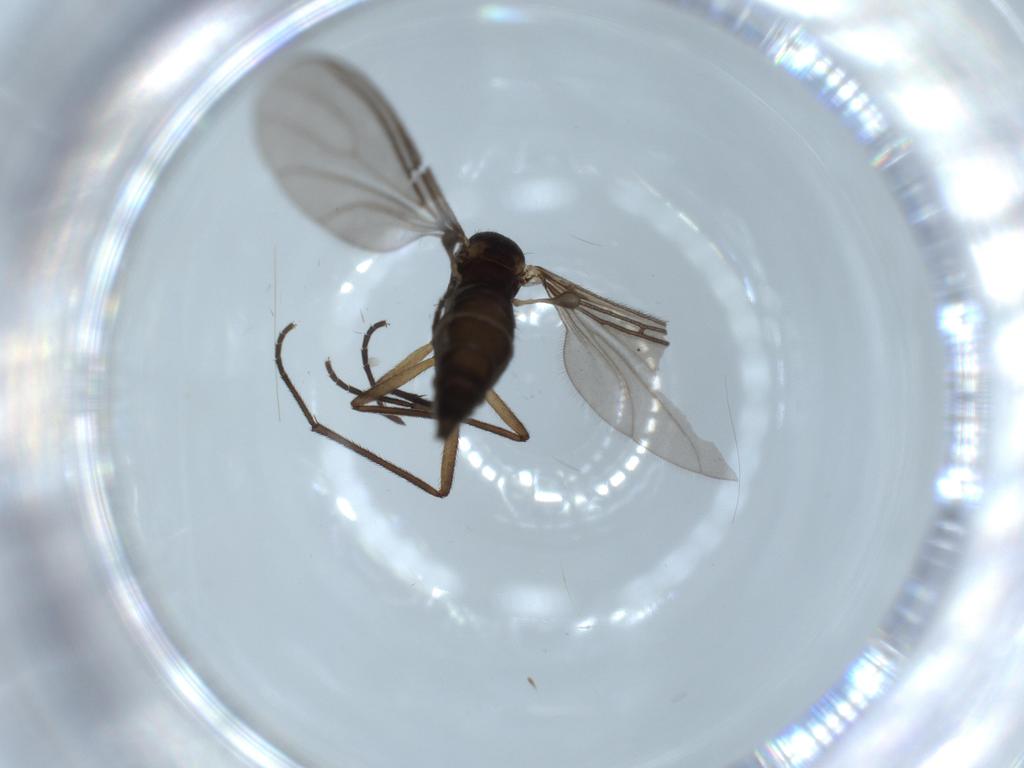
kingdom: Animalia
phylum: Arthropoda
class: Insecta
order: Diptera
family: Sciaridae
